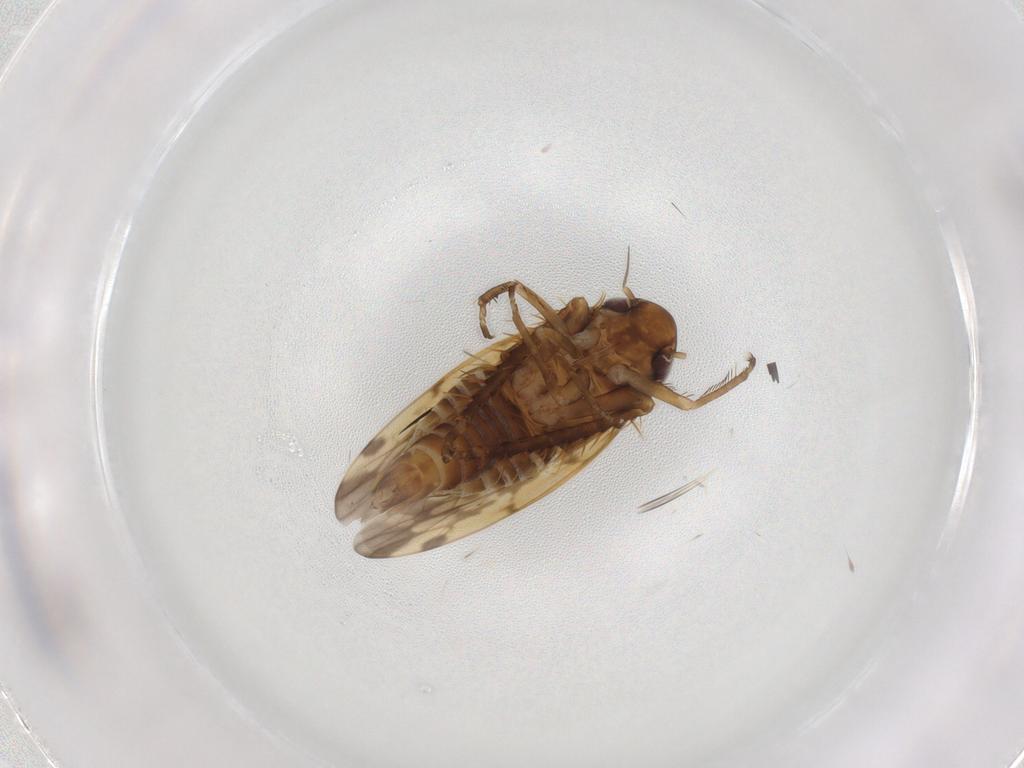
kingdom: Animalia
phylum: Arthropoda
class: Insecta
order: Hemiptera
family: Cicadellidae
